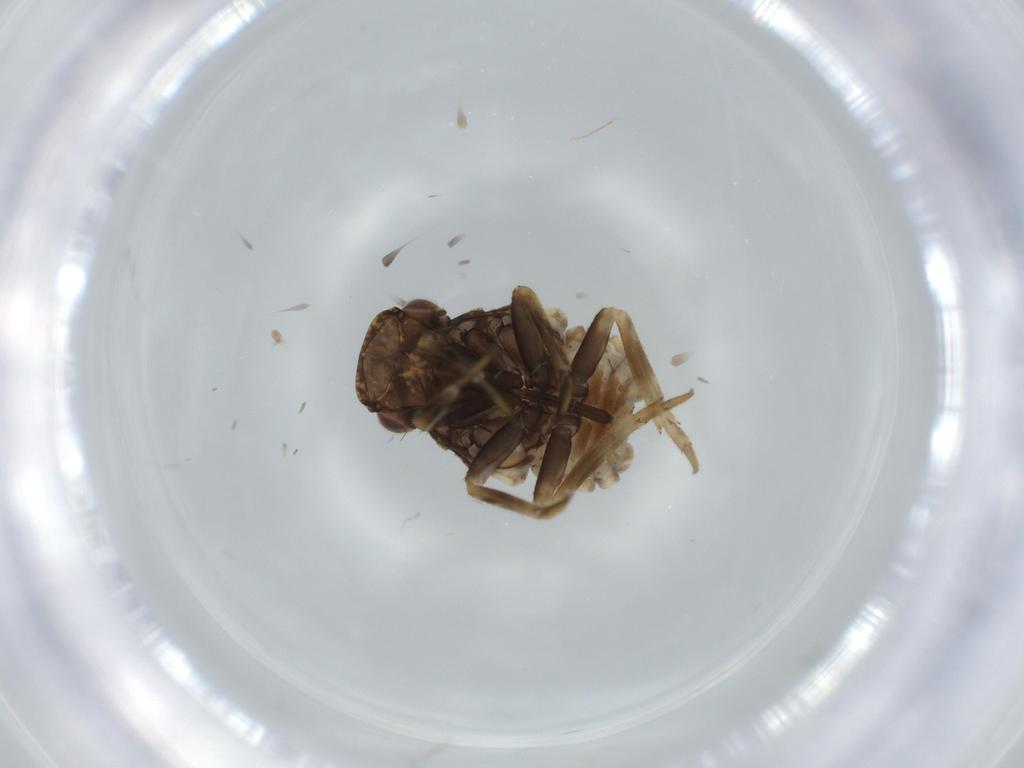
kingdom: Animalia
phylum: Arthropoda
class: Insecta
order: Hemiptera
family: Fulgoroidea_incertae_sedis
